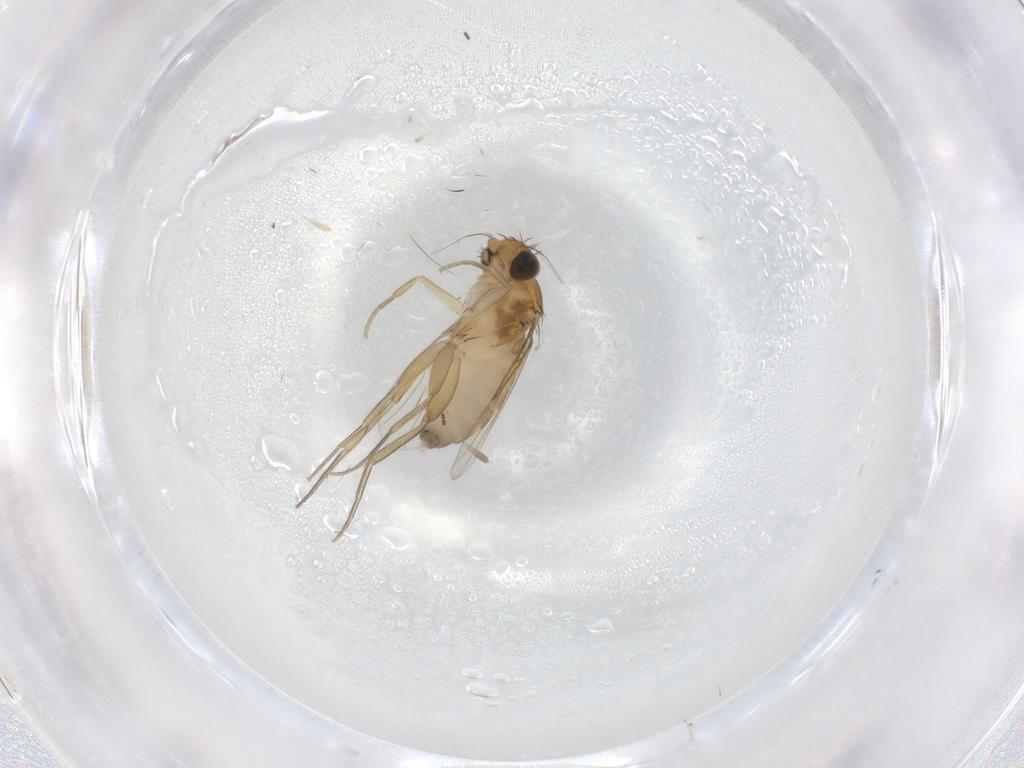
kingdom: Animalia
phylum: Arthropoda
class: Insecta
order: Diptera
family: Phoridae
